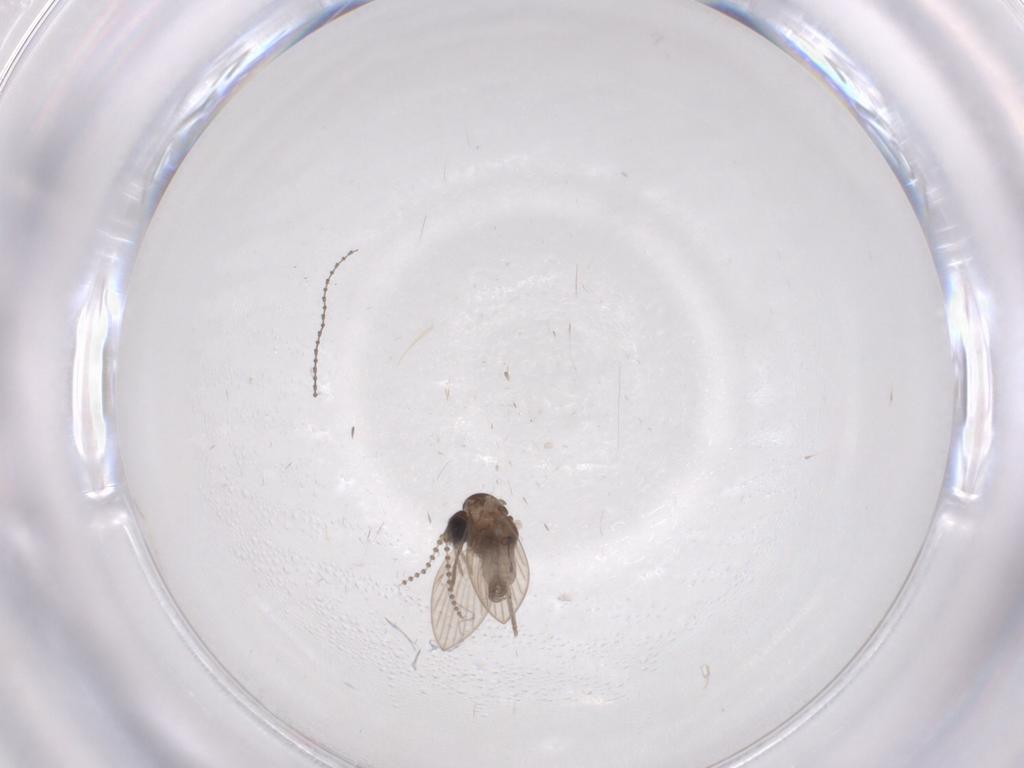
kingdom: Animalia
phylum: Arthropoda
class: Insecta
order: Diptera
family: Psychodidae
